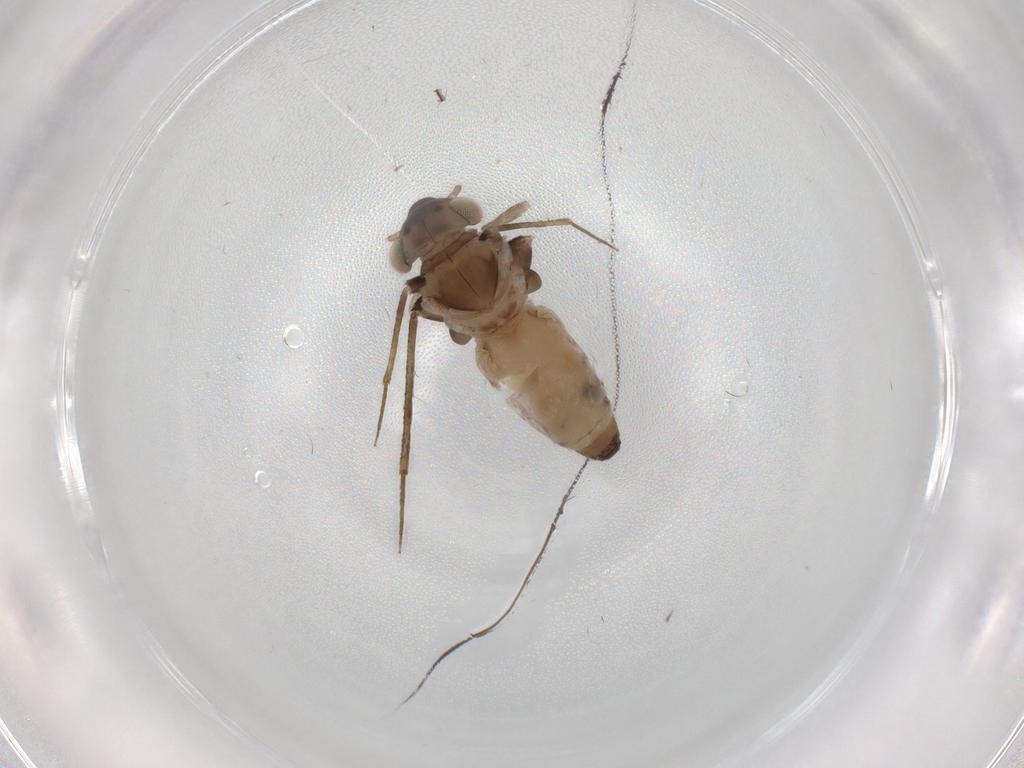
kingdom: Animalia
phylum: Arthropoda
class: Insecta
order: Psocodea
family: Lepidopsocidae
